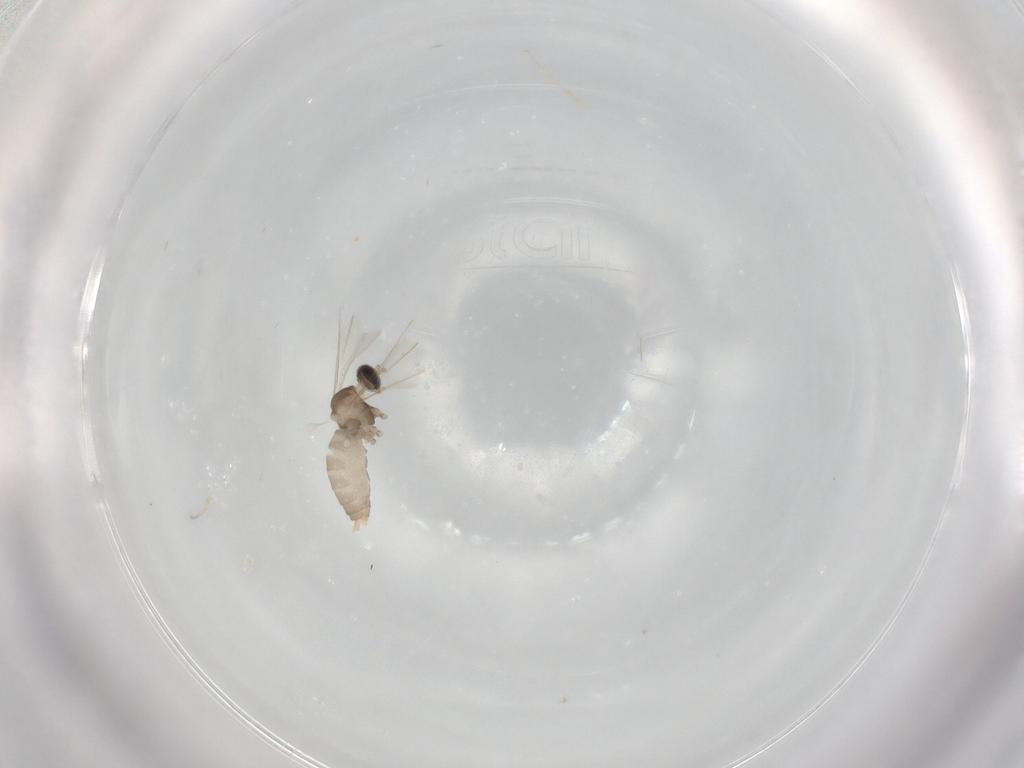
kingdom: Animalia
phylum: Arthropoda
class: Insecta
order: Diptera
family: Cecidomyiidae
